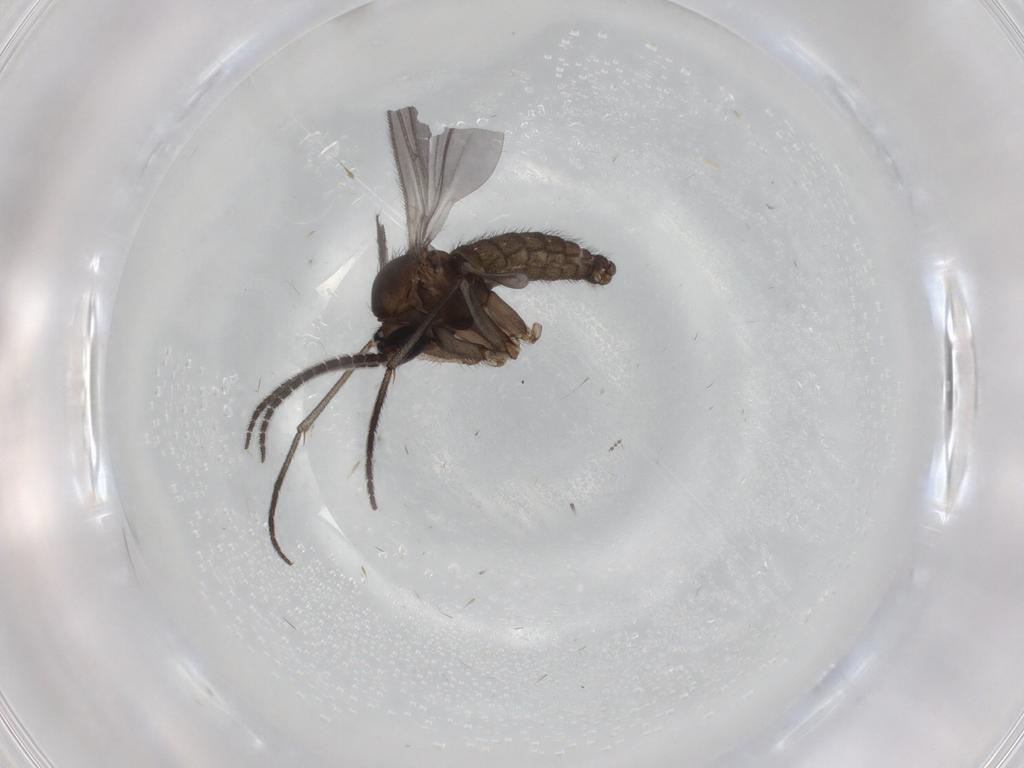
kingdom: Animalia
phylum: Arthropoda
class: Insecta
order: Diptera
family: Sciaridae
